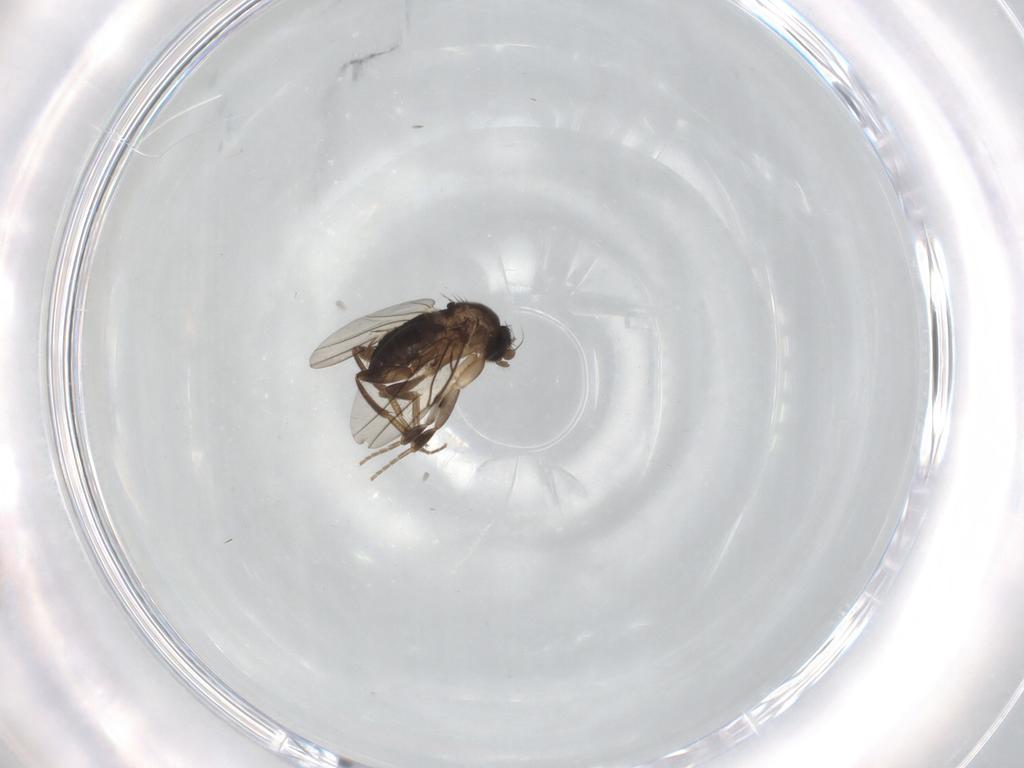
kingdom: Animalia
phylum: Arthropoda
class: Insecta
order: Diptera
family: Phoridae
